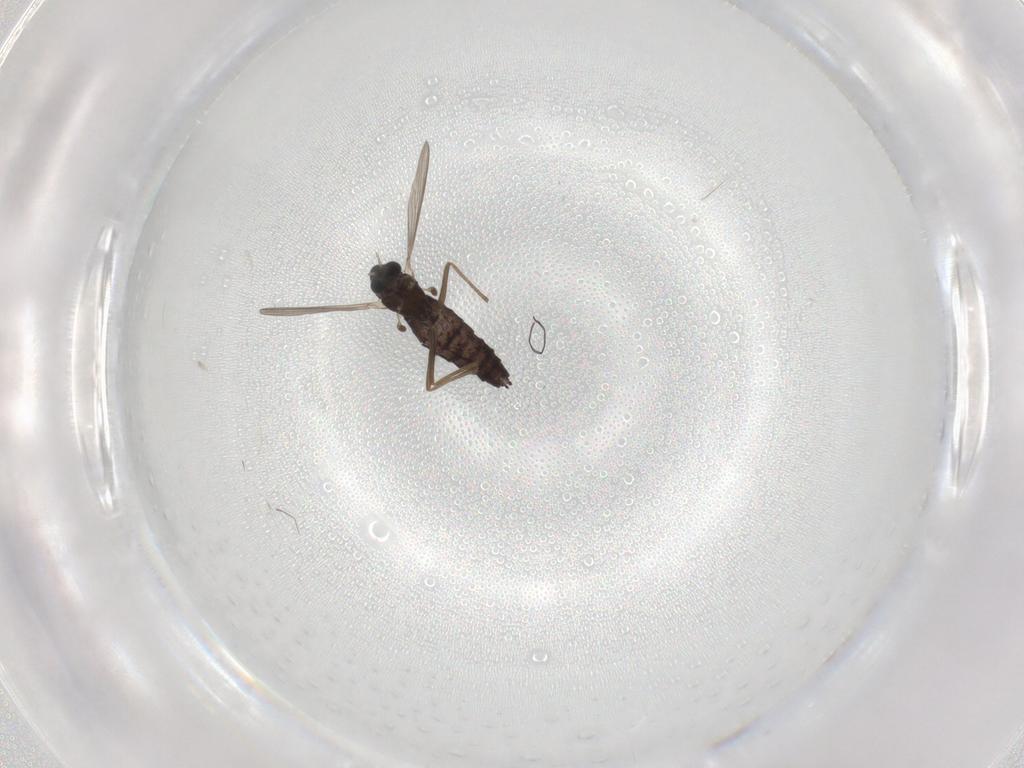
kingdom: Animalia
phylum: Arthropoda
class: Insecta
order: Diptera
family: Chironomidae
